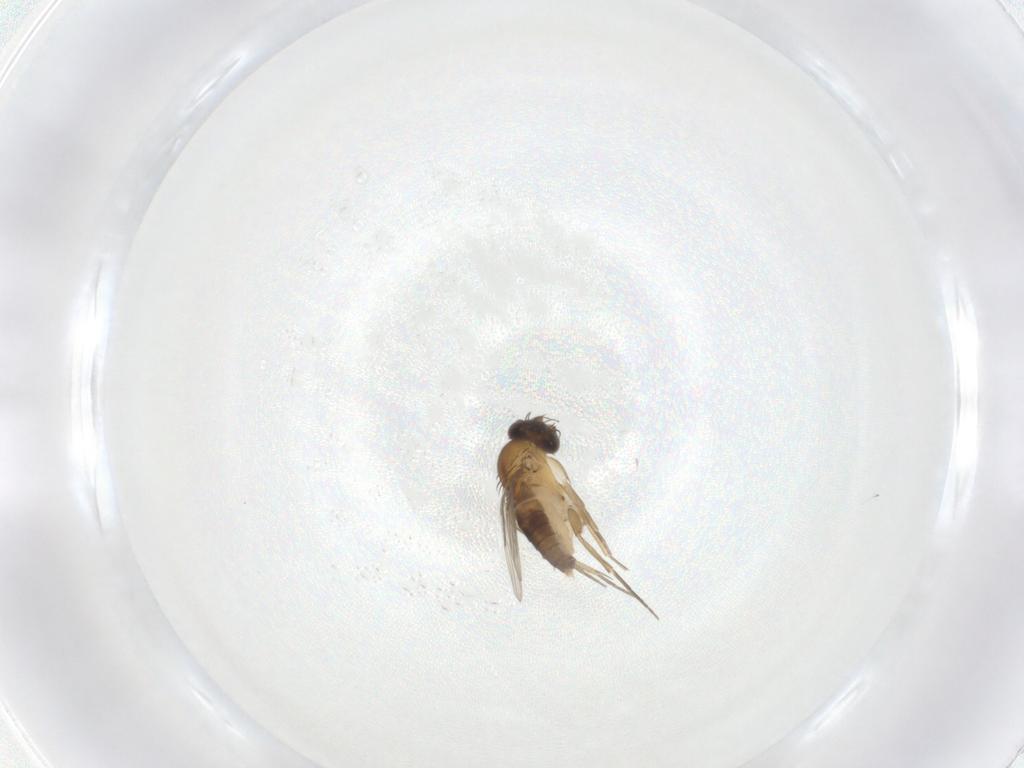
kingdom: Animalia
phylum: Arthropoda
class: Insecta
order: Diptera
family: Phoridae
